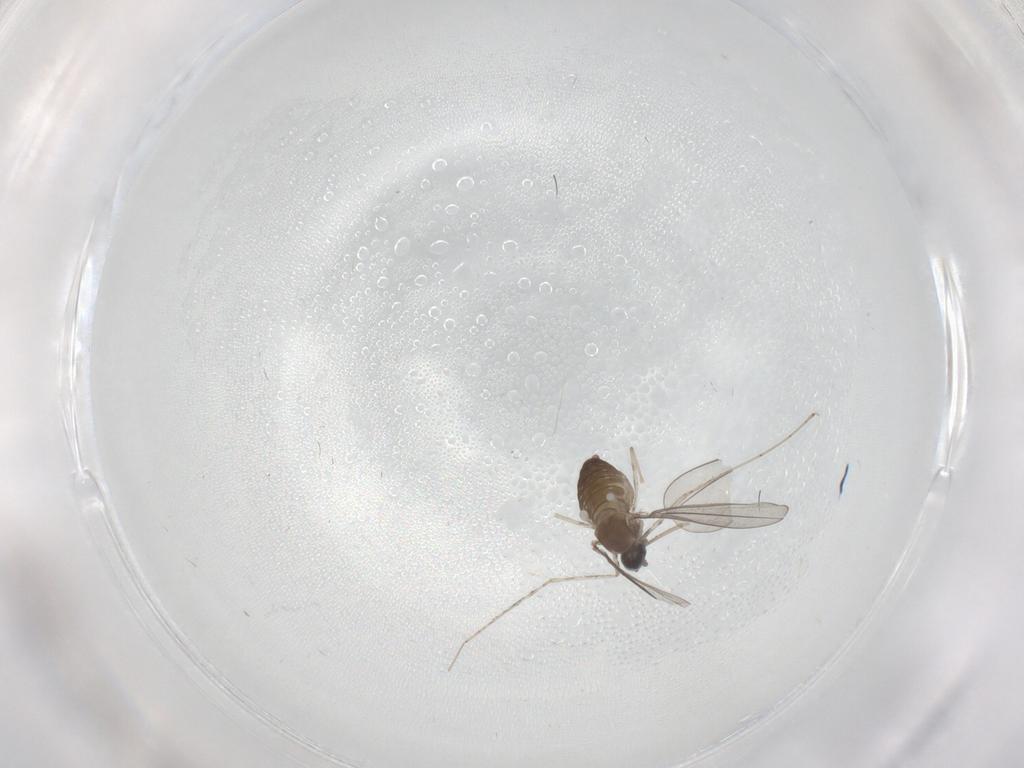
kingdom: Animalia
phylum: Arthropoda
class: Insecta
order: Diptera
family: Cecidomyiidae
